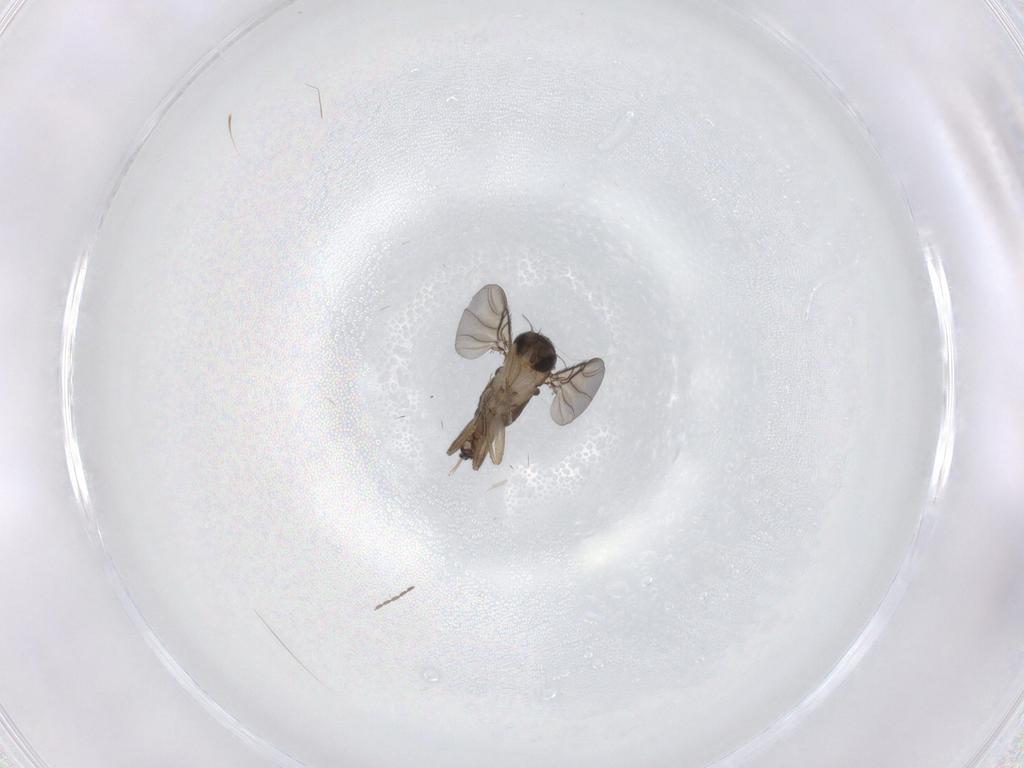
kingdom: Animalia
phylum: Arthropoda
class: Insecta
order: Diptera
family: Phoridae
